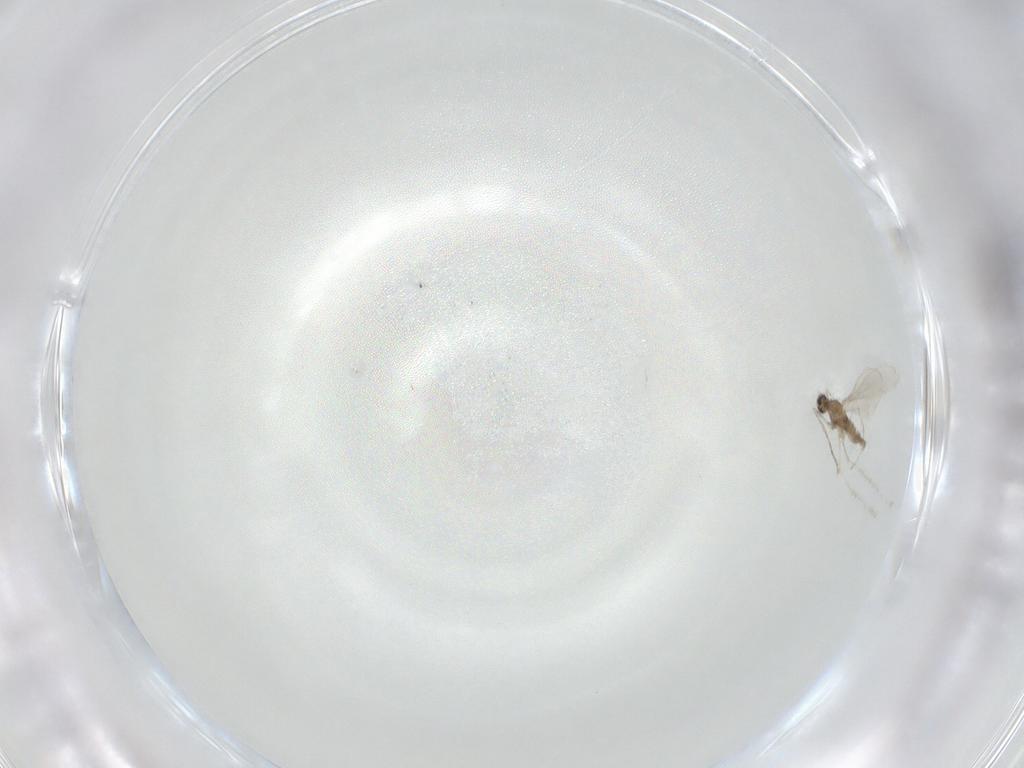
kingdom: Animalia
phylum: Arthropoda
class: Insecta
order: Diptera
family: Cecidomyiidae
